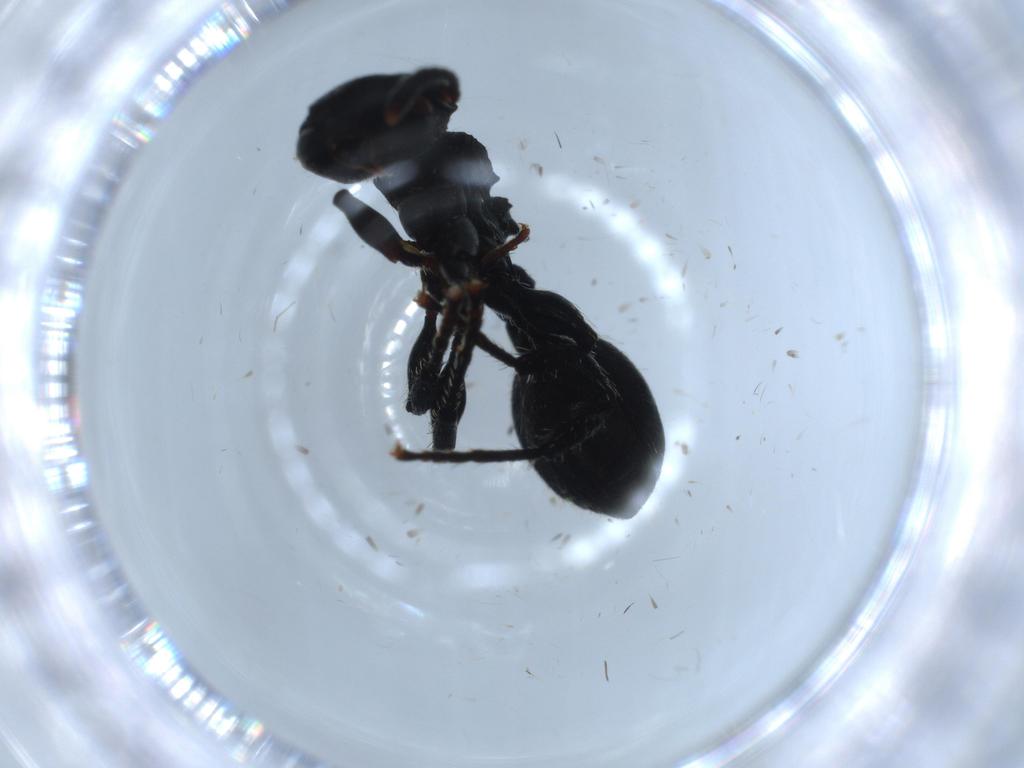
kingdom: Animalia
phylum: Arthropoda
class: Insecta
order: Hymenoptera
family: Formicidae
